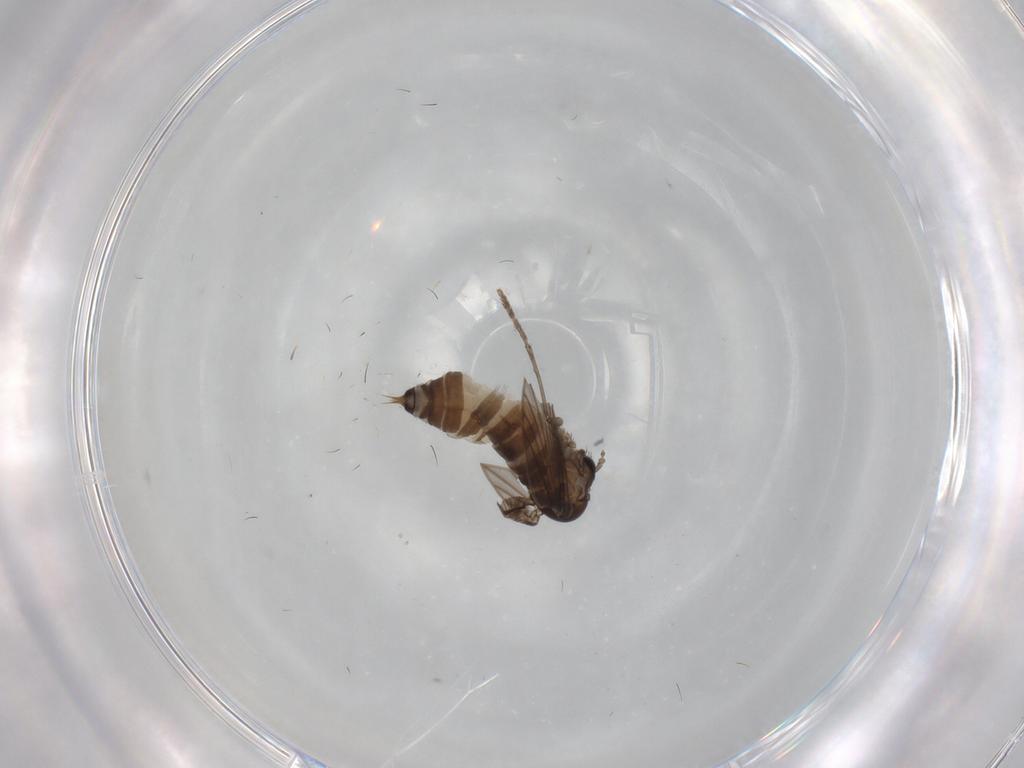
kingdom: Animalia
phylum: Arthropoda
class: Insecta
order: Diptera
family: Psychodidae
